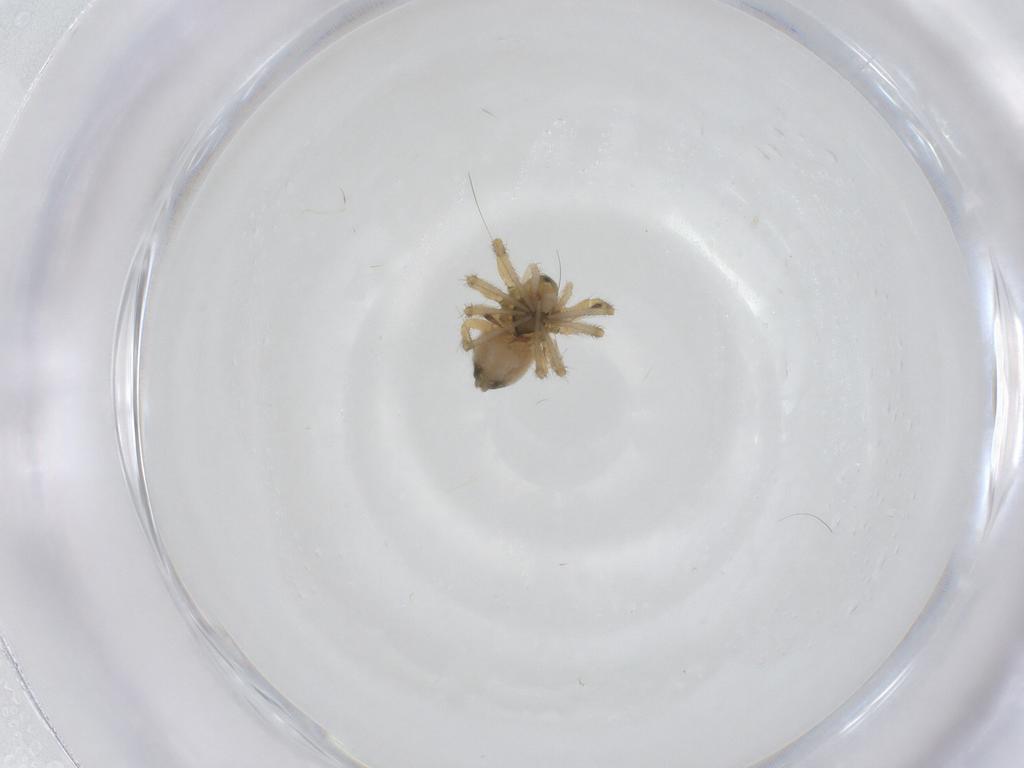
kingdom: Animalia
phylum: Arthropoda
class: Arachnida
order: Araneae
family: Linyphiidae
